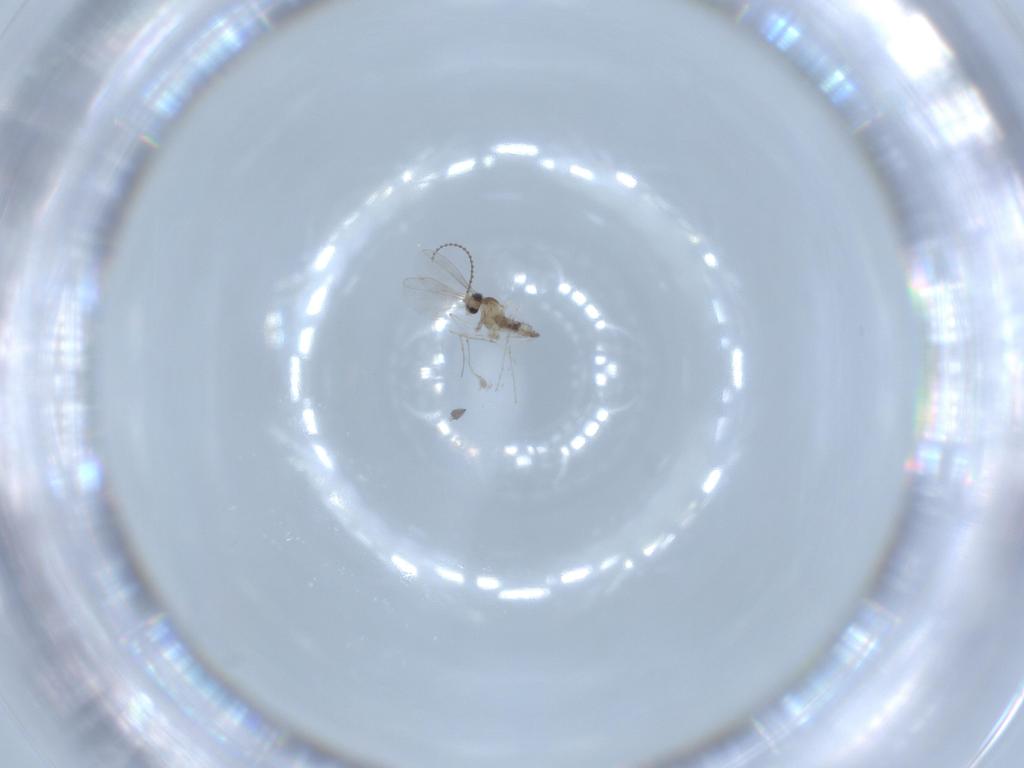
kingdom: Animalia
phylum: Arthropoda
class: Insecta
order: Diptera
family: Cecidomyiidae
